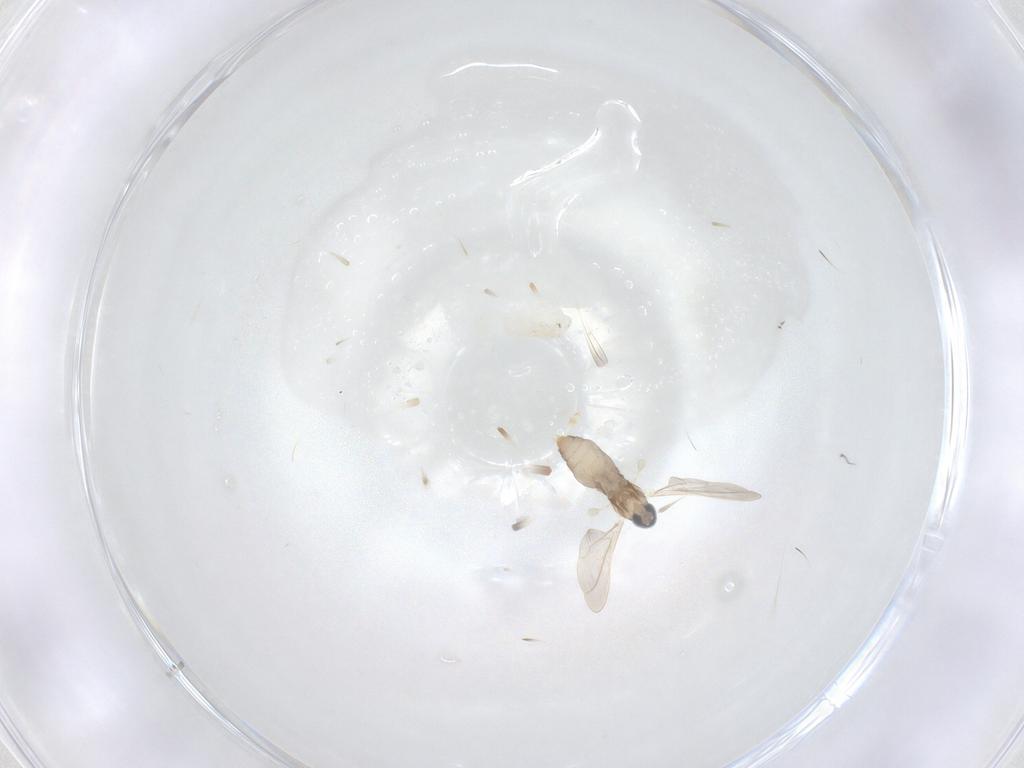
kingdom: Animalia
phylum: Arthropoda
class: Insecta
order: Diptera
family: Cecidomyiidae
